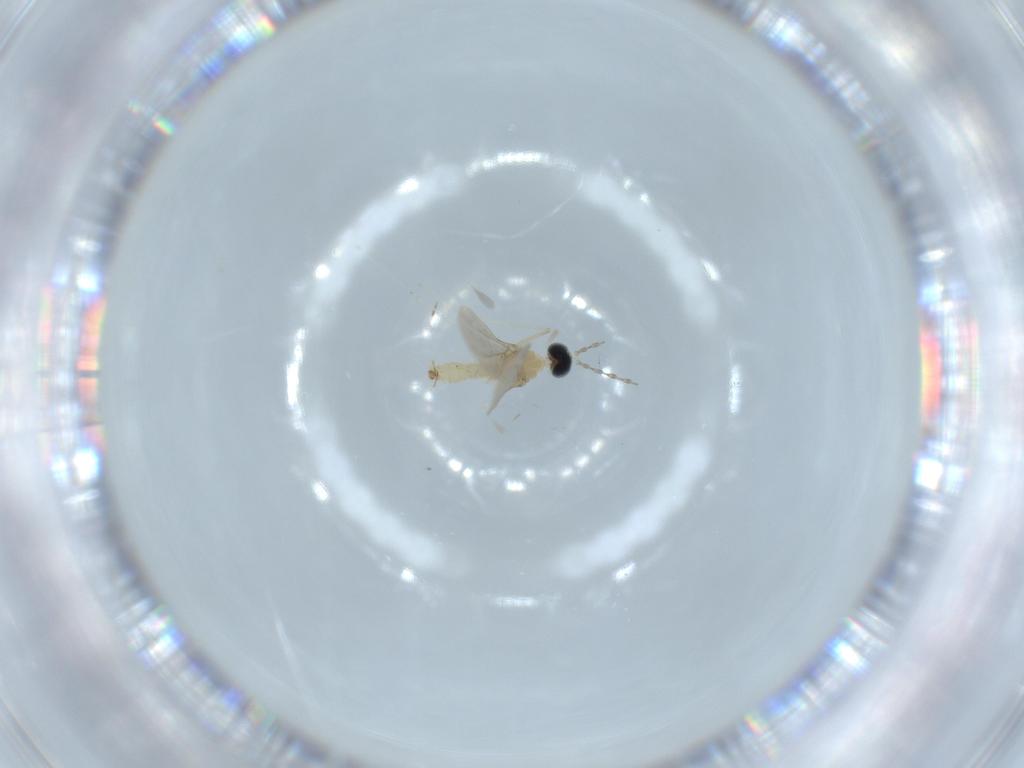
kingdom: Animalia
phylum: Arthropoda
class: Insecta
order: Diptera
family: Cecidomyiidae
